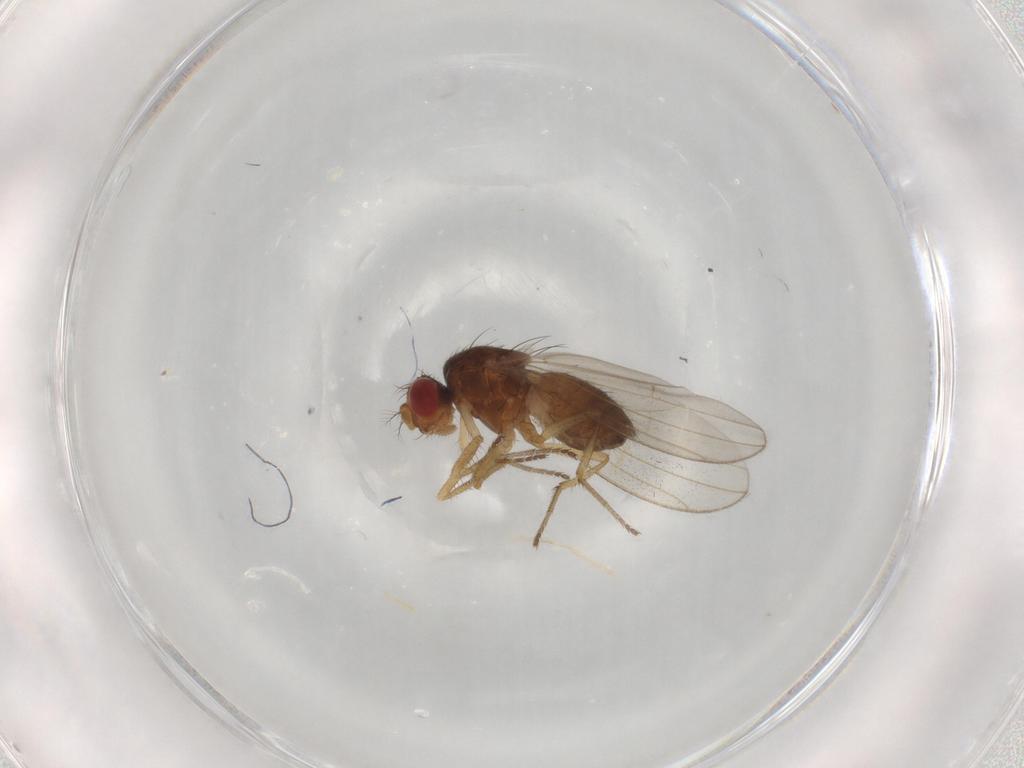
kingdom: Animalia
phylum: Arthropoda
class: Insecta
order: Diptera
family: Drosophilidae
